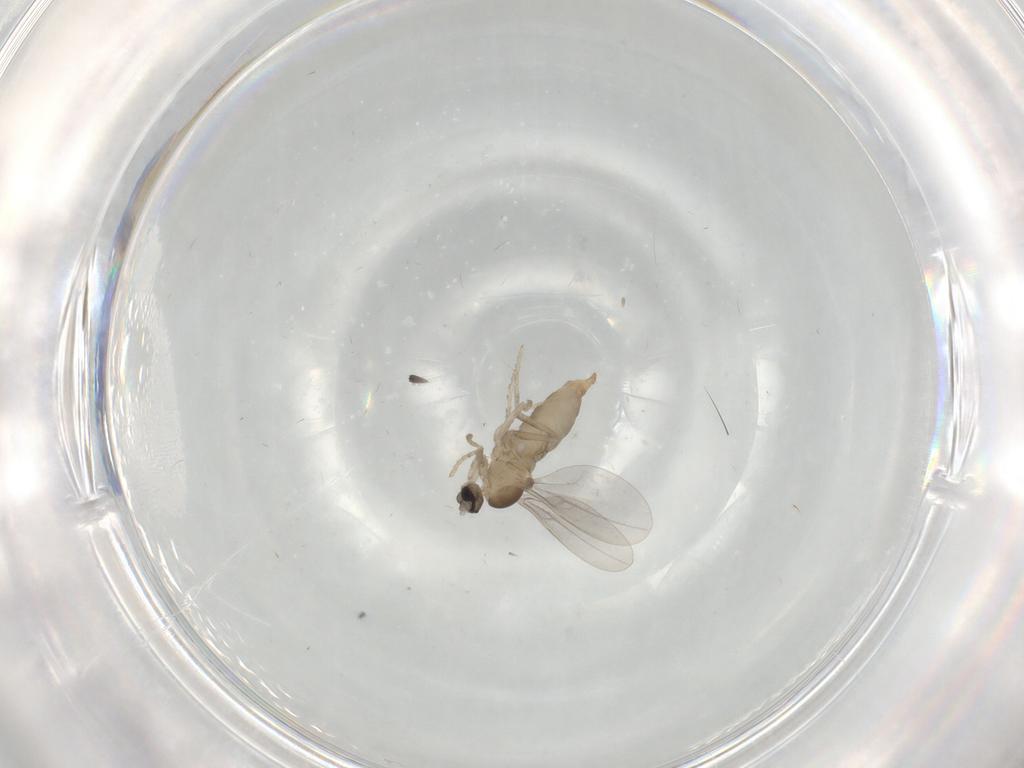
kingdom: Animalia
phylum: Arthropoda
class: Insecta
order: Diptera
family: Cecidomyiidae
